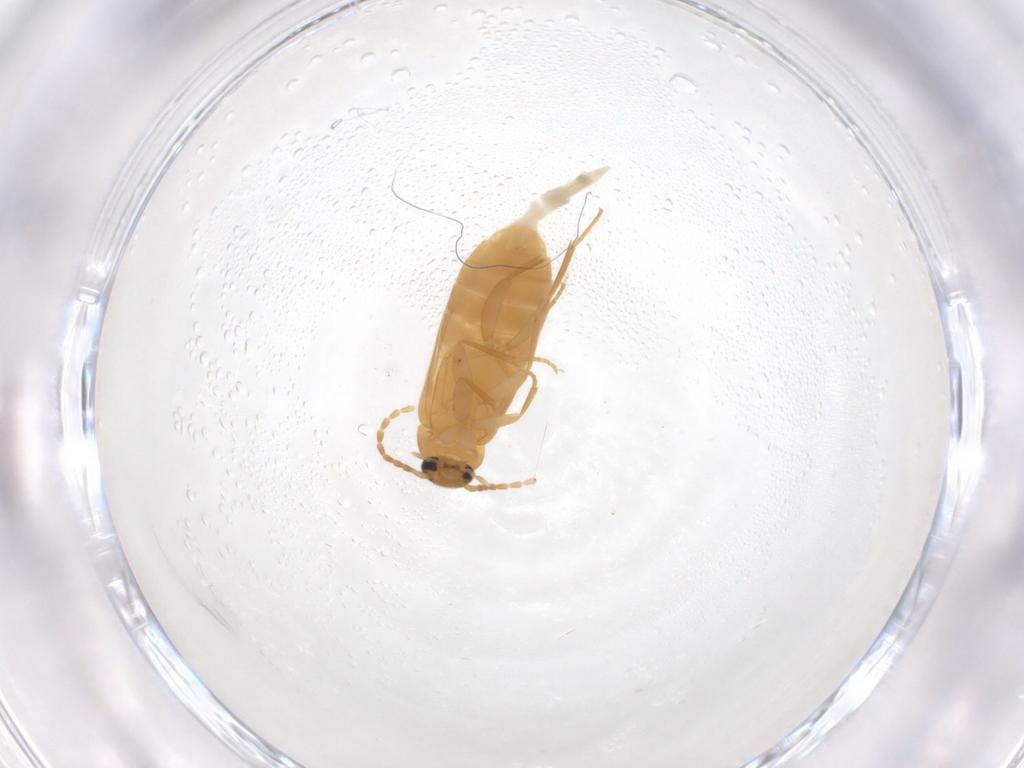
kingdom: Animalia
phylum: Arthropoda
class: Insecta
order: Coleoptera
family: Scraptiidae
